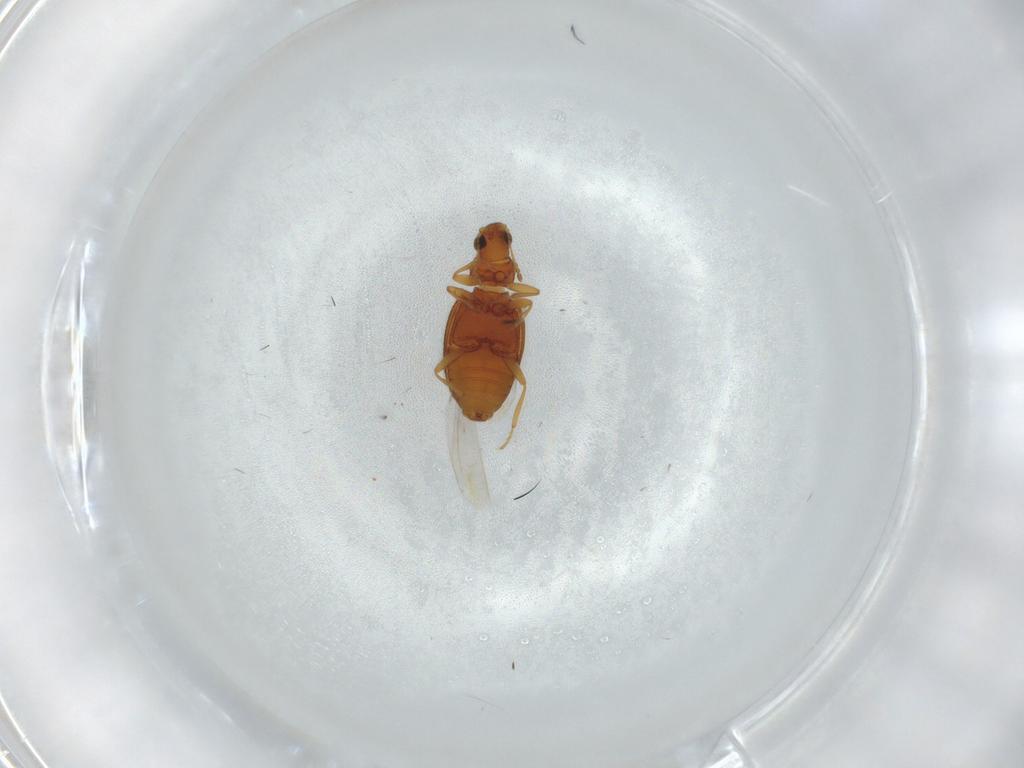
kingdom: Animalia
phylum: Arthropoda
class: Insecta
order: Coleoptera
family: Latridiidae
